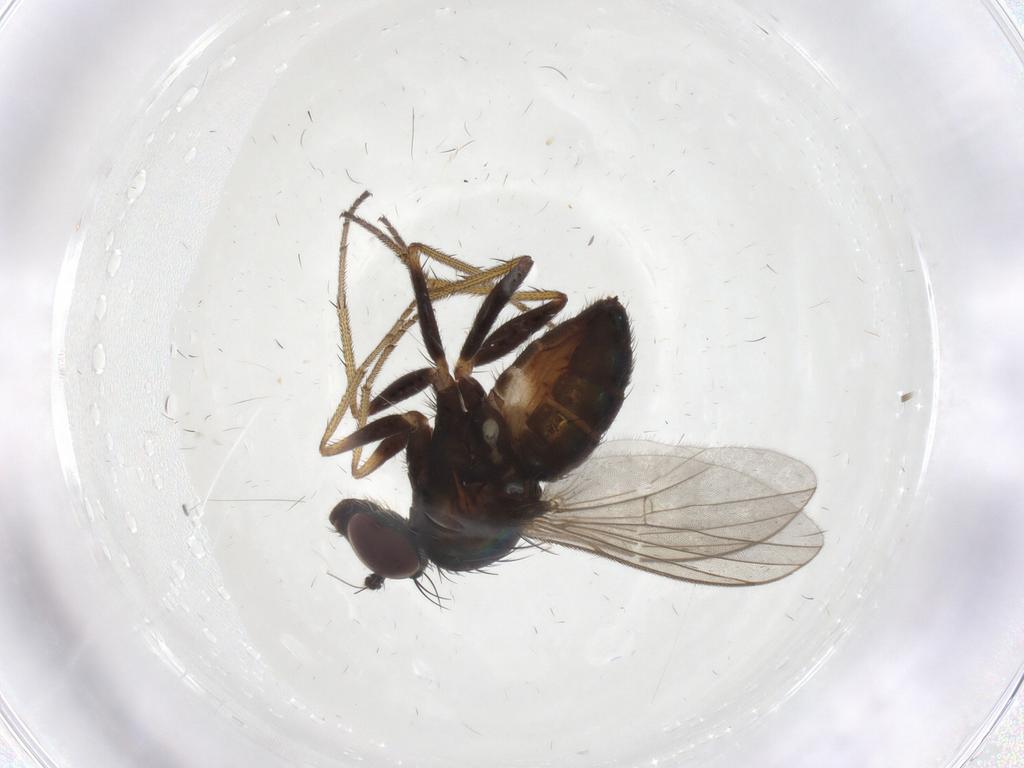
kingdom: Animalia
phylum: Arthropoda
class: Insecta
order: Diptera
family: Cecidomyiidae
